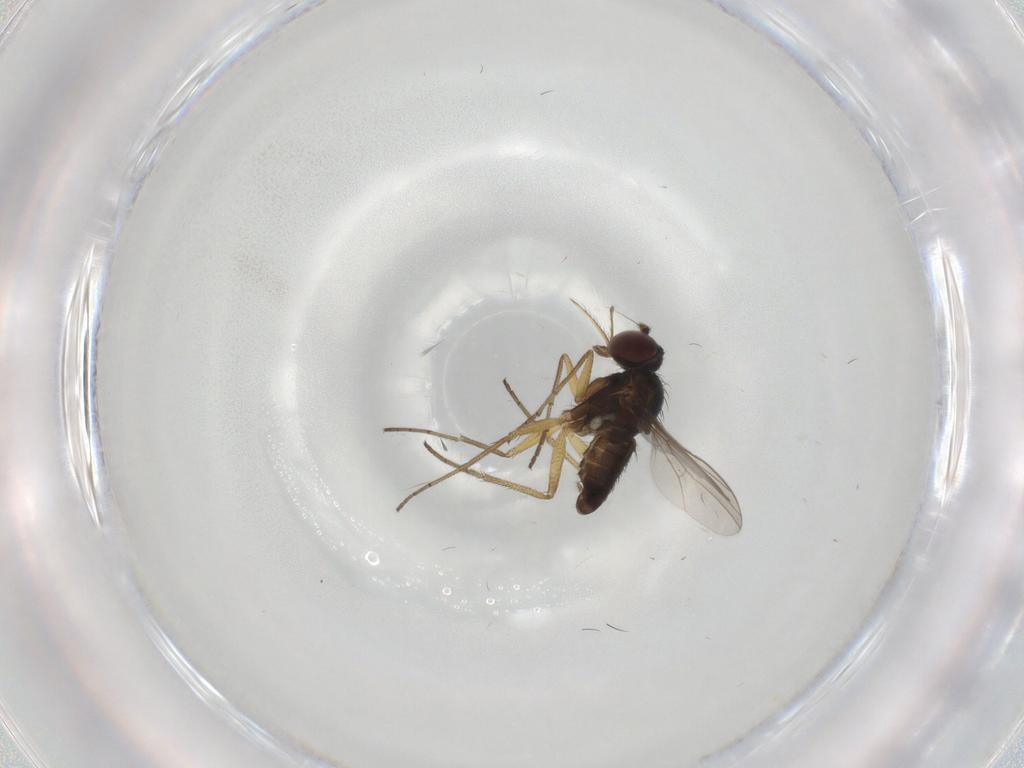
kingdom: Animalia
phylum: Arthropoda
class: Insecta
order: Diptera
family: Dolichopodidae
